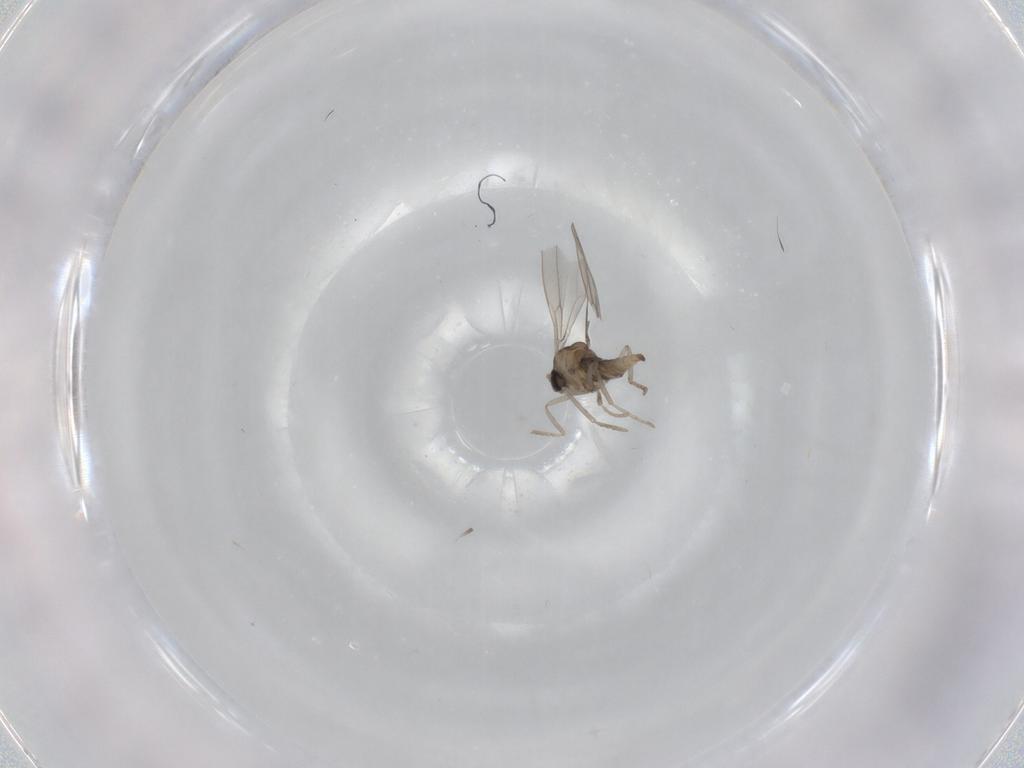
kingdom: Animalia
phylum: Arthropoda
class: Insecta
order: Diptera
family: Cecidomyiidae
